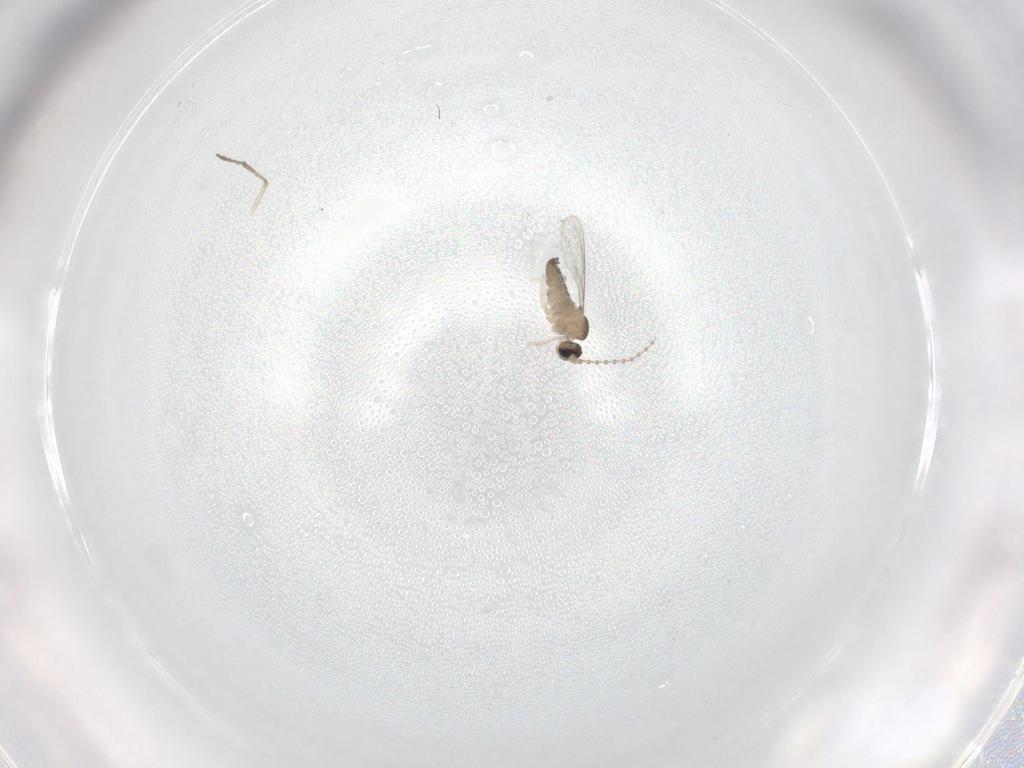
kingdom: Animalia
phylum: Arthropoda
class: Insecta
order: Diptera
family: Cecidomyiidae
